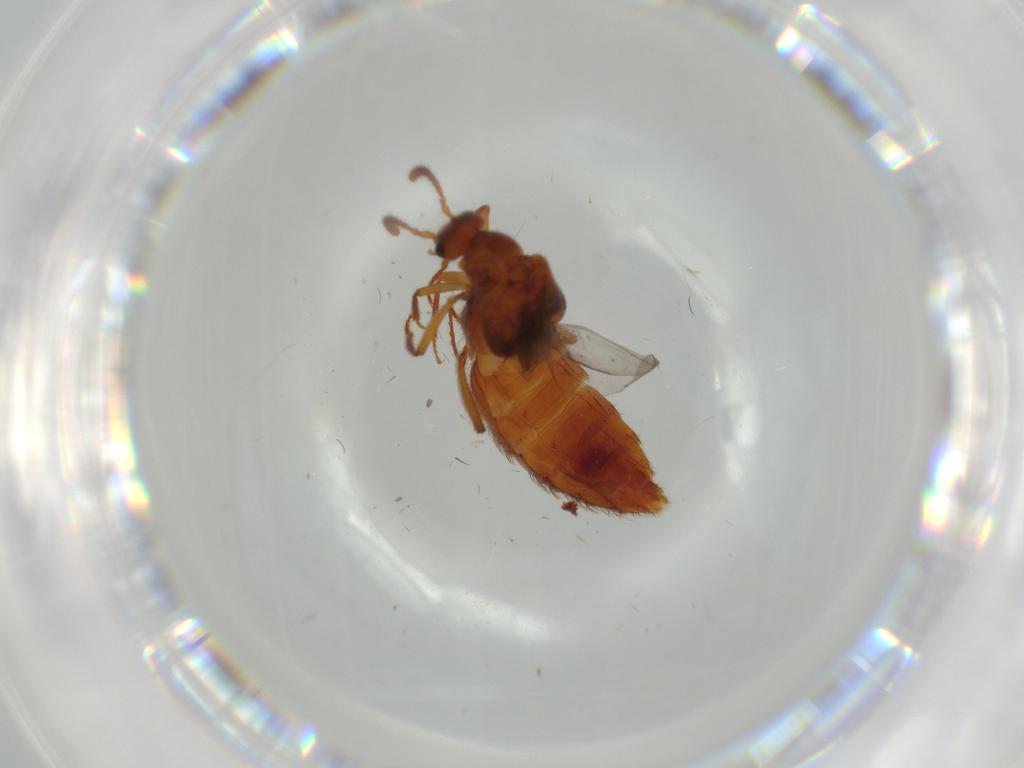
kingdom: Animalia
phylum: Arthropoda
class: Insecta
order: Coleoptera
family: Staphylinidae
